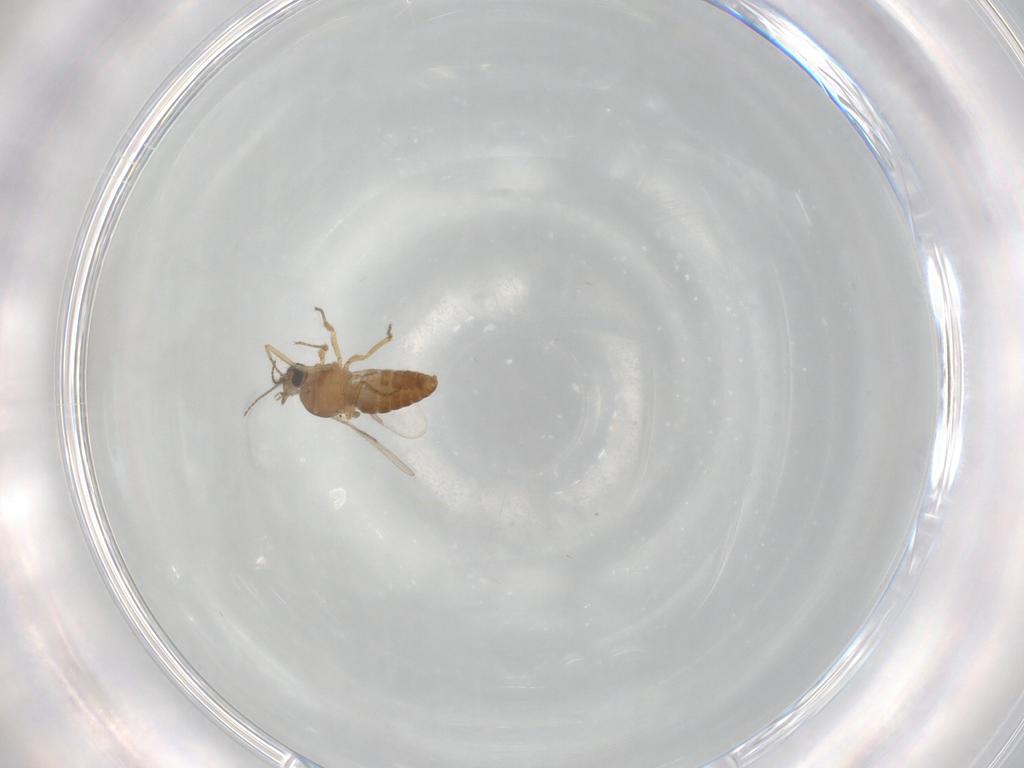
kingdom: Animalia
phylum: Arthropoda
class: Insecta
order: Diptera
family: Ceratopogonidae
